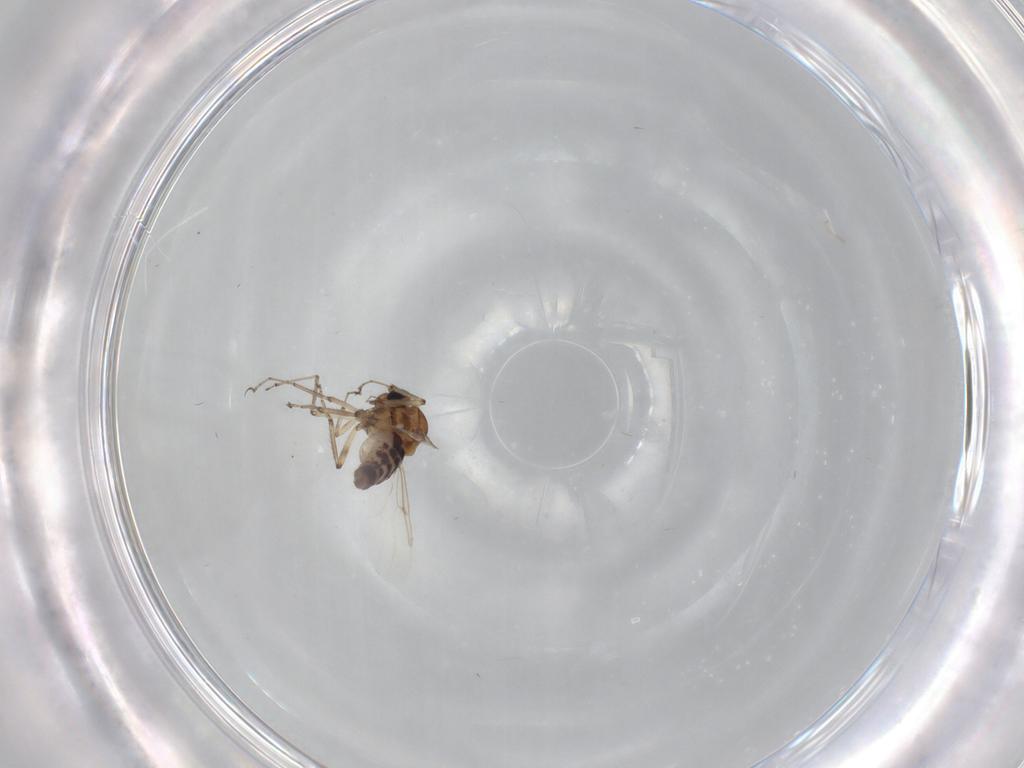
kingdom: Animalia
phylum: Arthropoda
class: Insecta
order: Diptera
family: Ceratopogonidae
